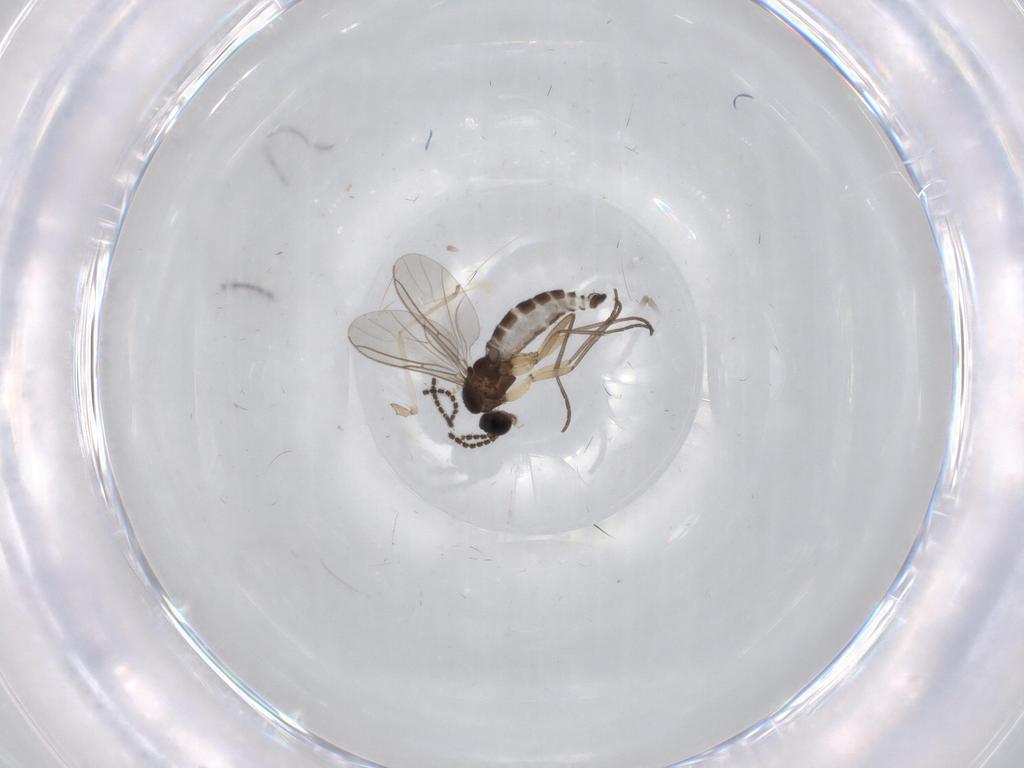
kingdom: Animalia
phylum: Arthropoda
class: Insecta
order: Diptera
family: Sciaridae
